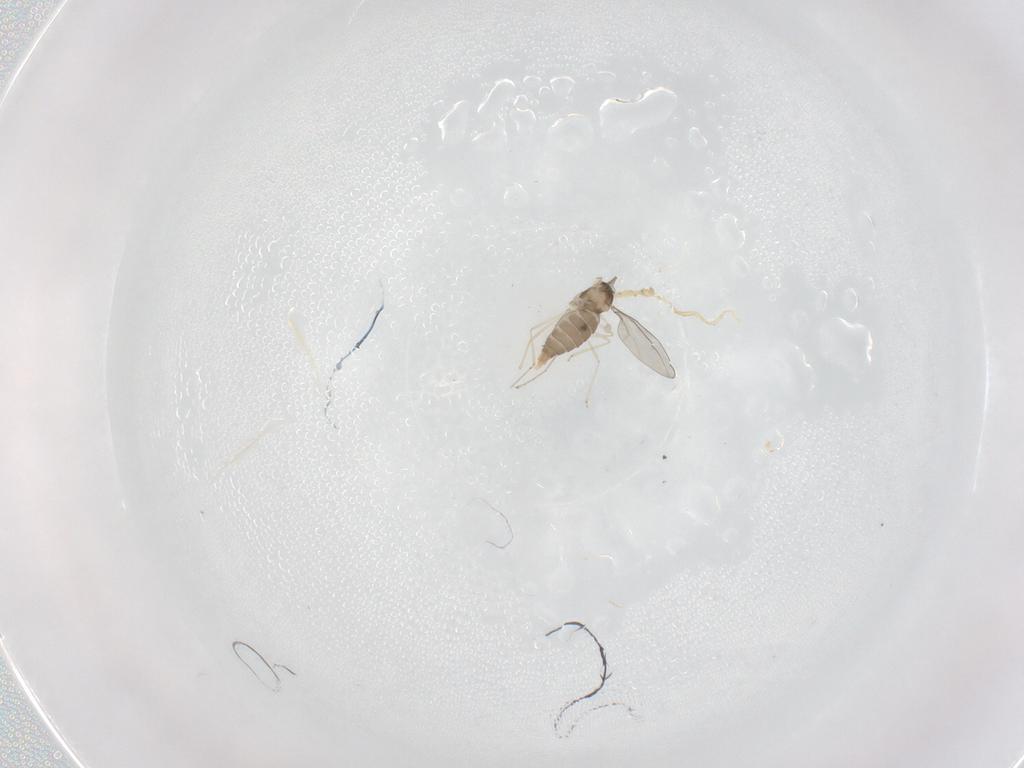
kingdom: Animalia
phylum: Arthropoda
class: Insecta
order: Diptera
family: Cecidomyiidae
